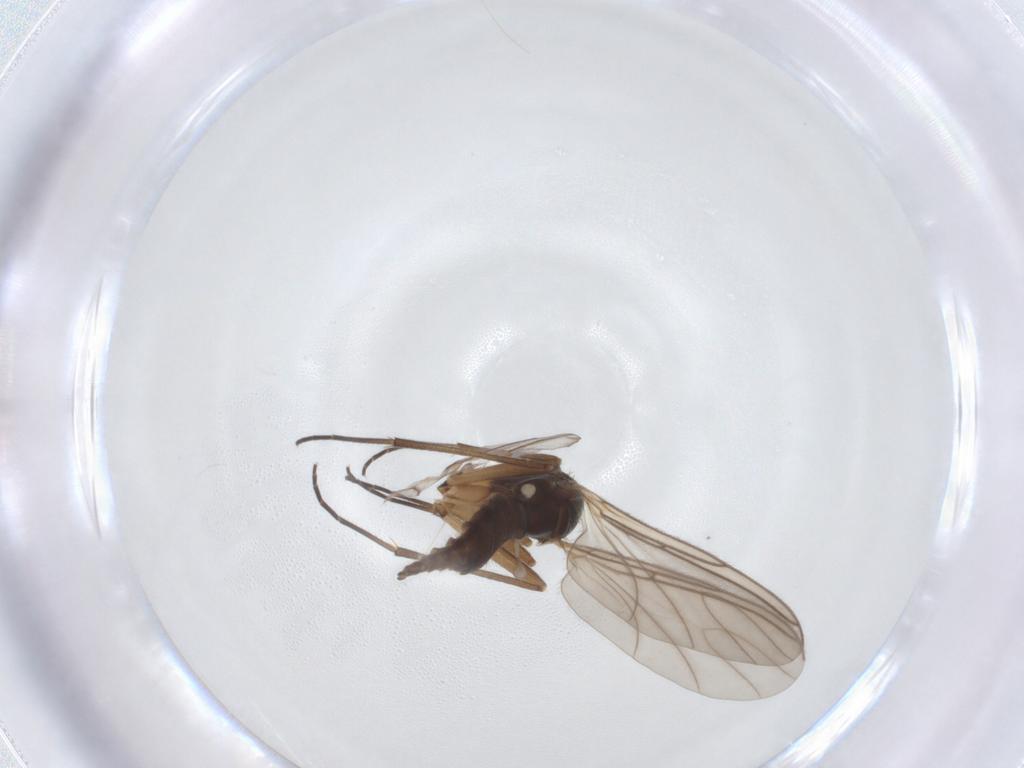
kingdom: Animalia
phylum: Arthropoda
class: Insecta
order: Diptera
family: Sciaridae
